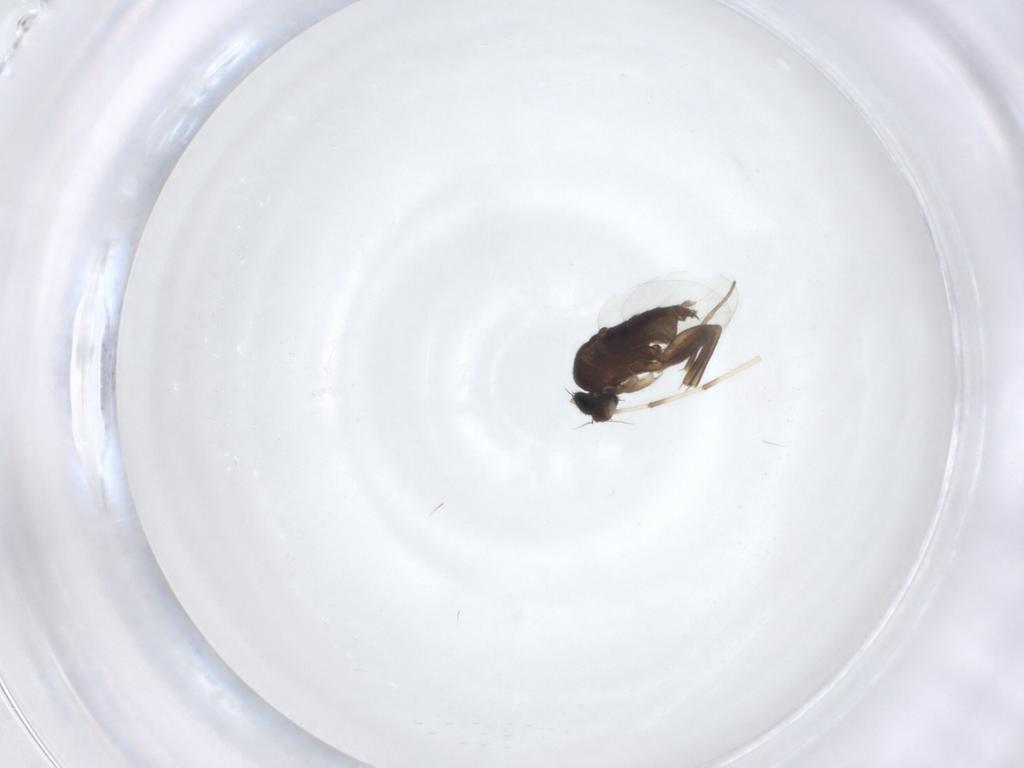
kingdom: Animalia
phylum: Arthropoda
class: Insecta
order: Diptera
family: Phoridae
